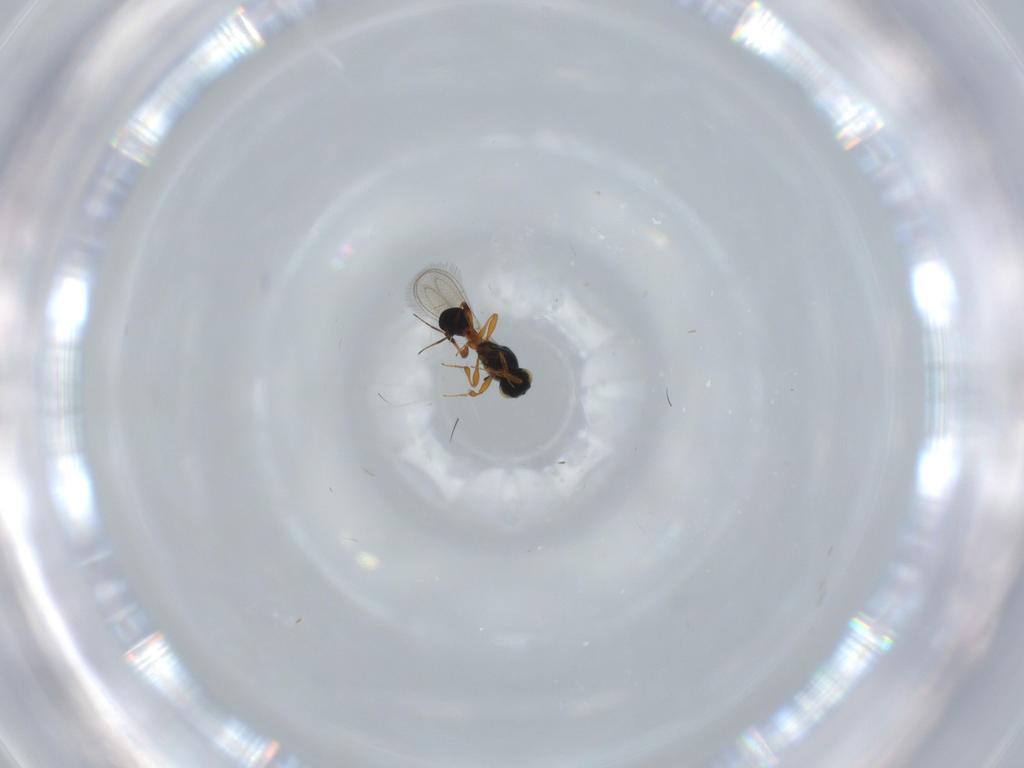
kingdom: Animalia
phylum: Arthropoda
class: Insecta
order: Hymenoptera
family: Platygastridae
